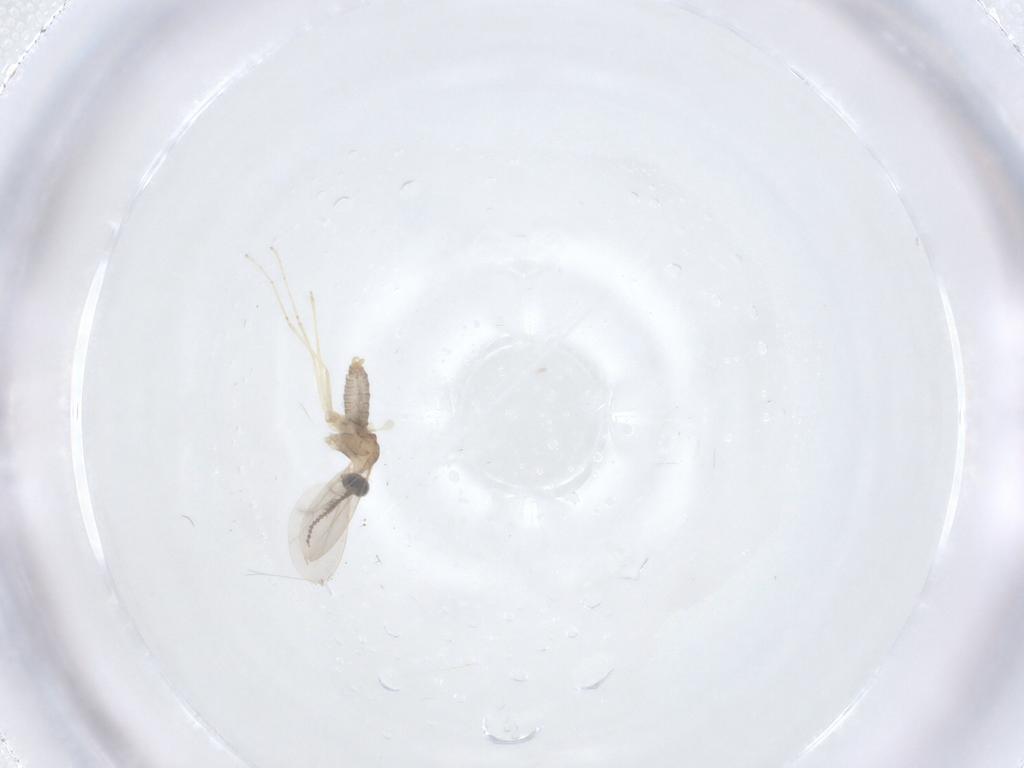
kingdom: Animalia
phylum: Arthropoda
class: Insecta
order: Diptera
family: Cecidomyiidae
